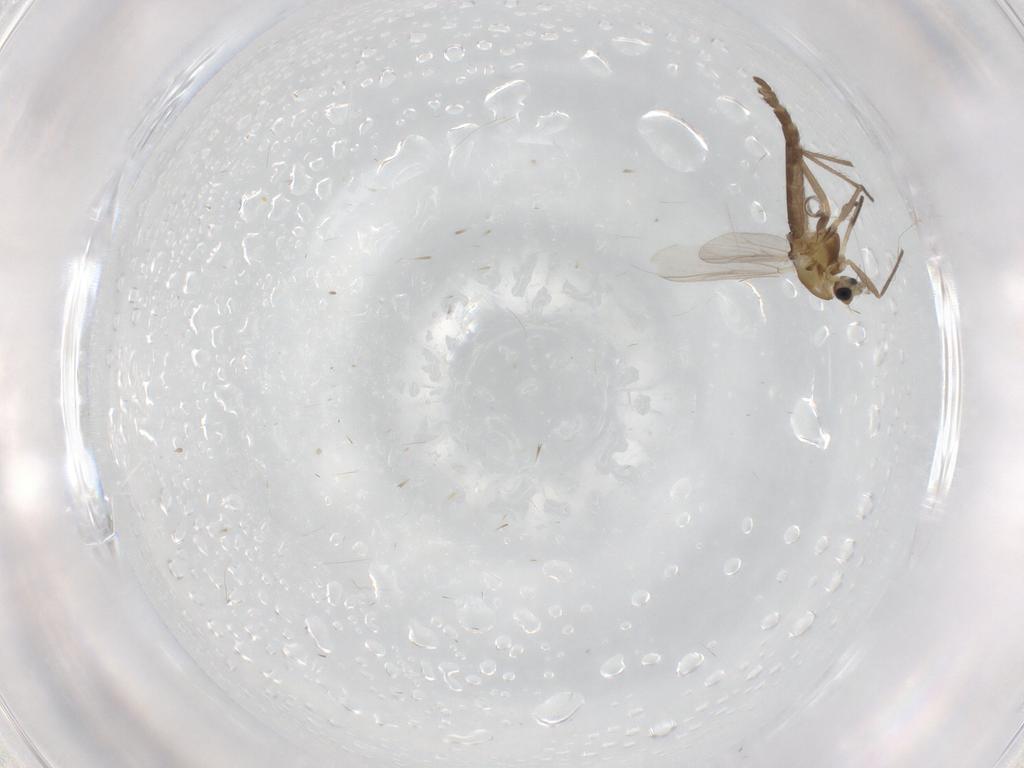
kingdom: Animalia
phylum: Arthropoda
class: Insecta
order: Diptera
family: Chironomidae
